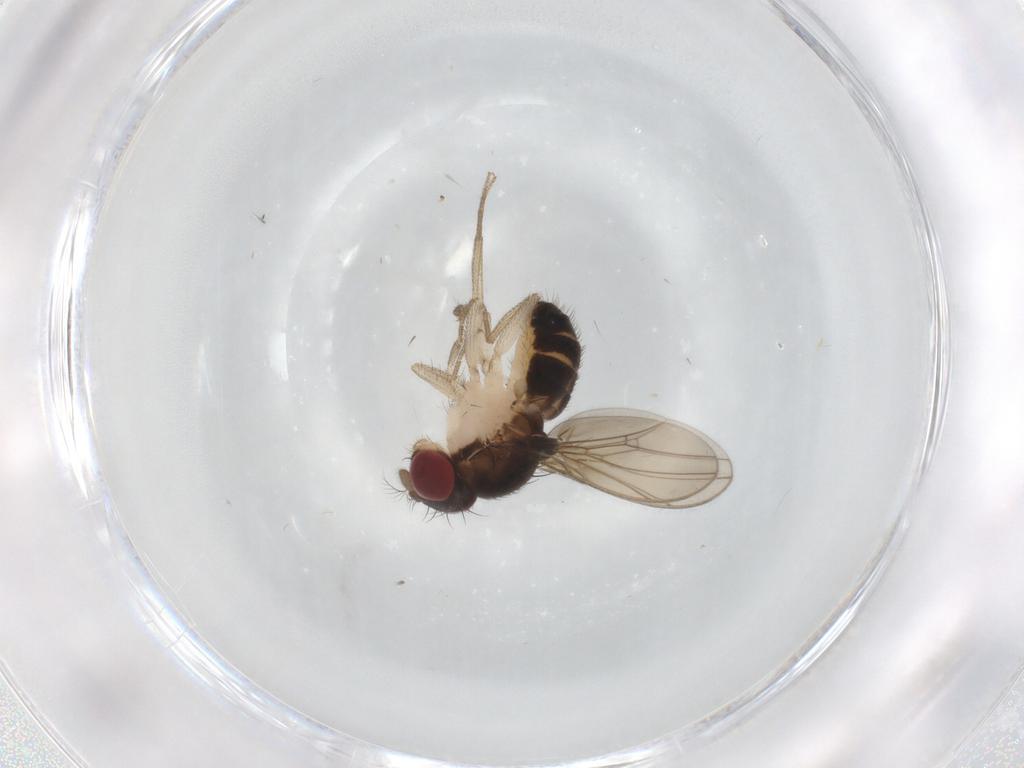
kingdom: Animalia
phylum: Arthropoda
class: Insecta
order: Diptera
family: Drosophilidae
